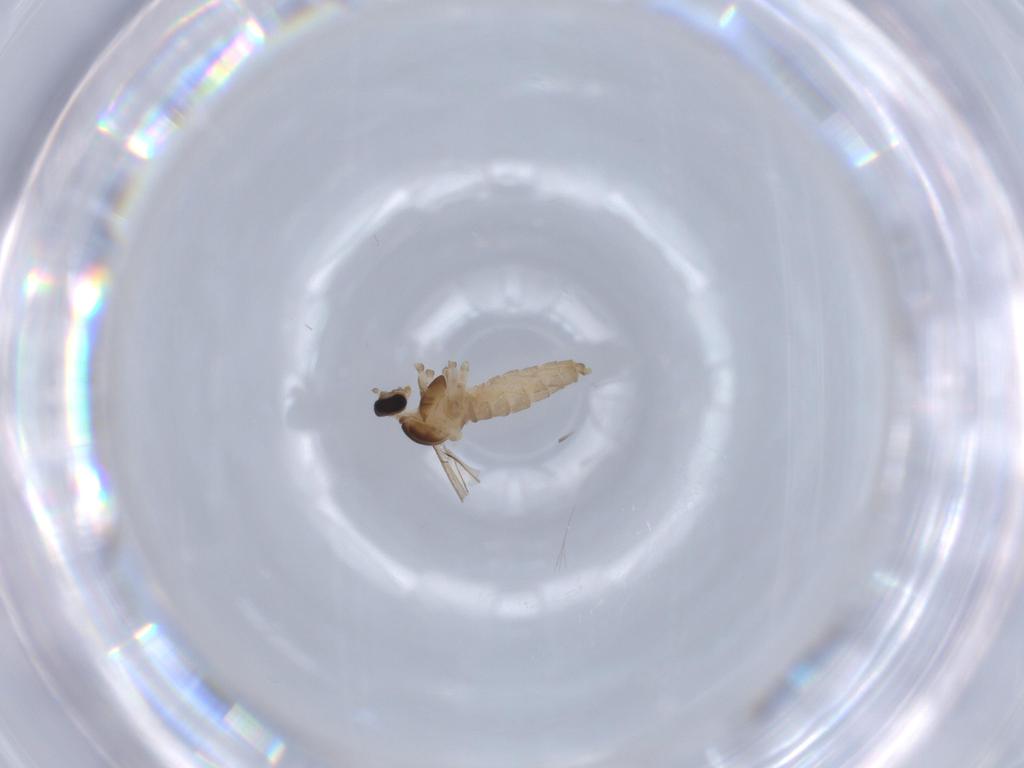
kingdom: Animalia
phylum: Arthropoda
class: Insecta
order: Diptera
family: Cecidomyiidae
